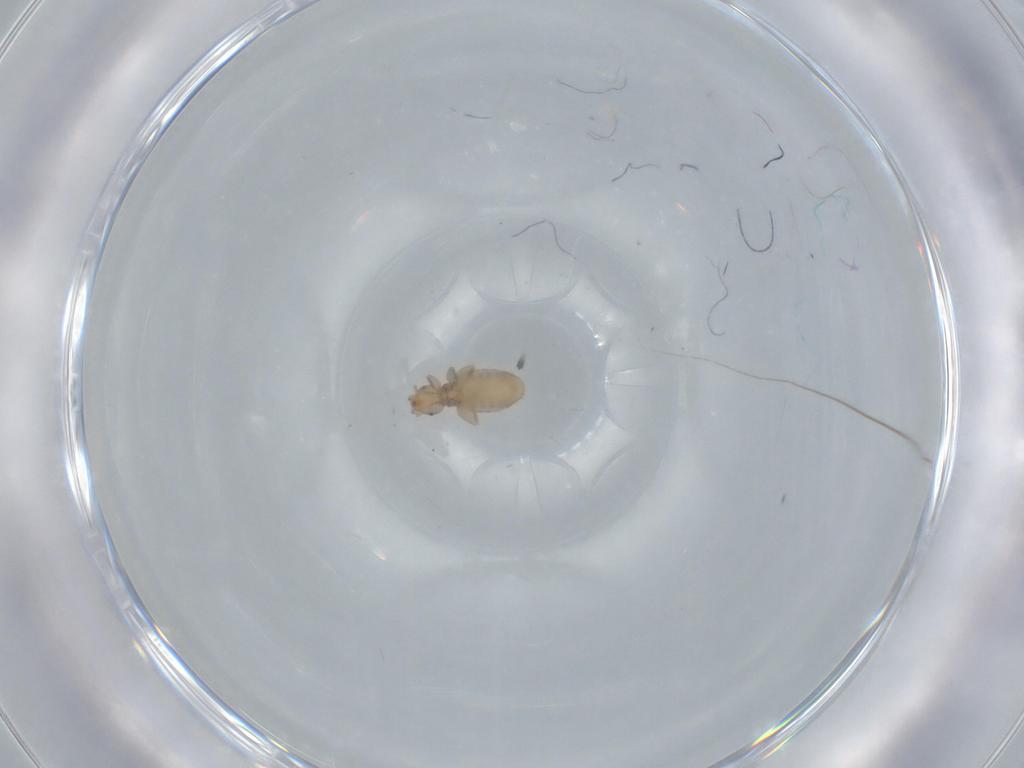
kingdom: Animalia
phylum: Arthropoda
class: Insecta
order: Psocodea
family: Liposcelididae
